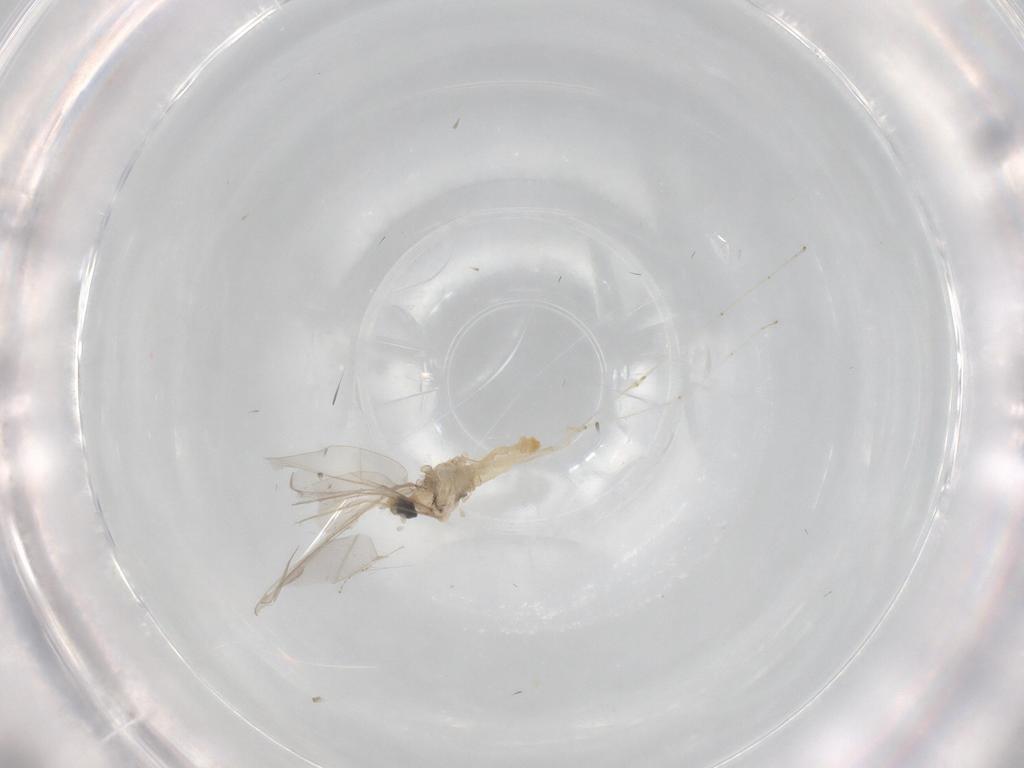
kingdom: Animalia
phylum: Arthropoda
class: Insecta
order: Diptera
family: Cecidomyiidae
